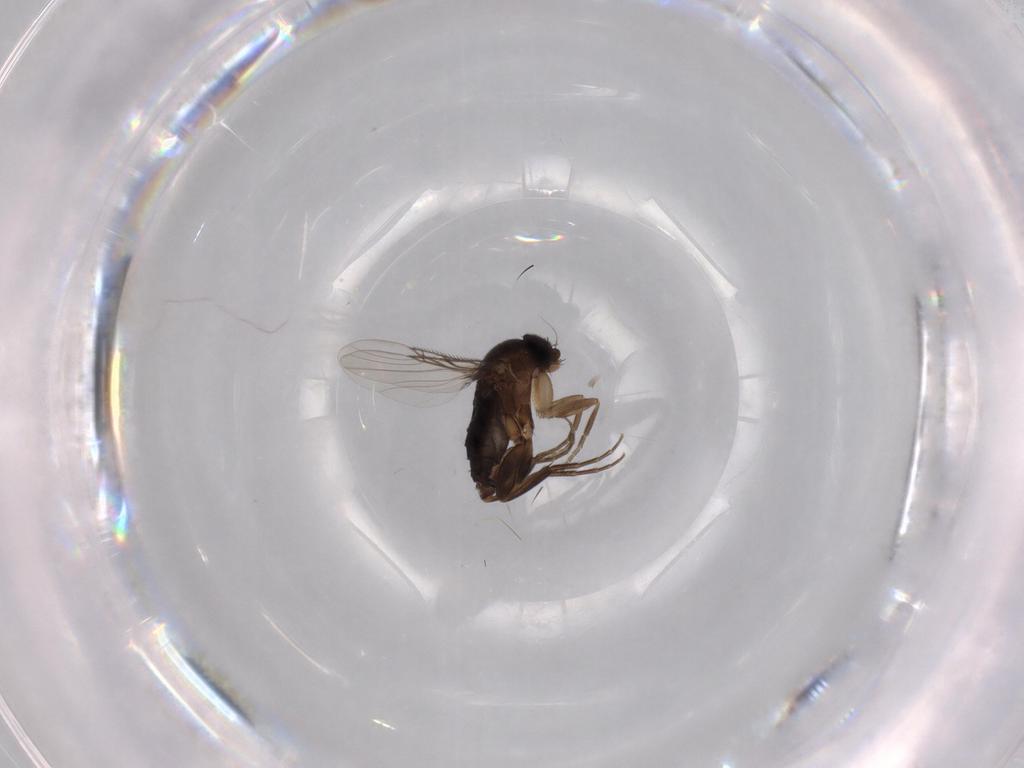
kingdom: Animalia
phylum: Arthropoda
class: Insecta
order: Diptera
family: Phoridae
